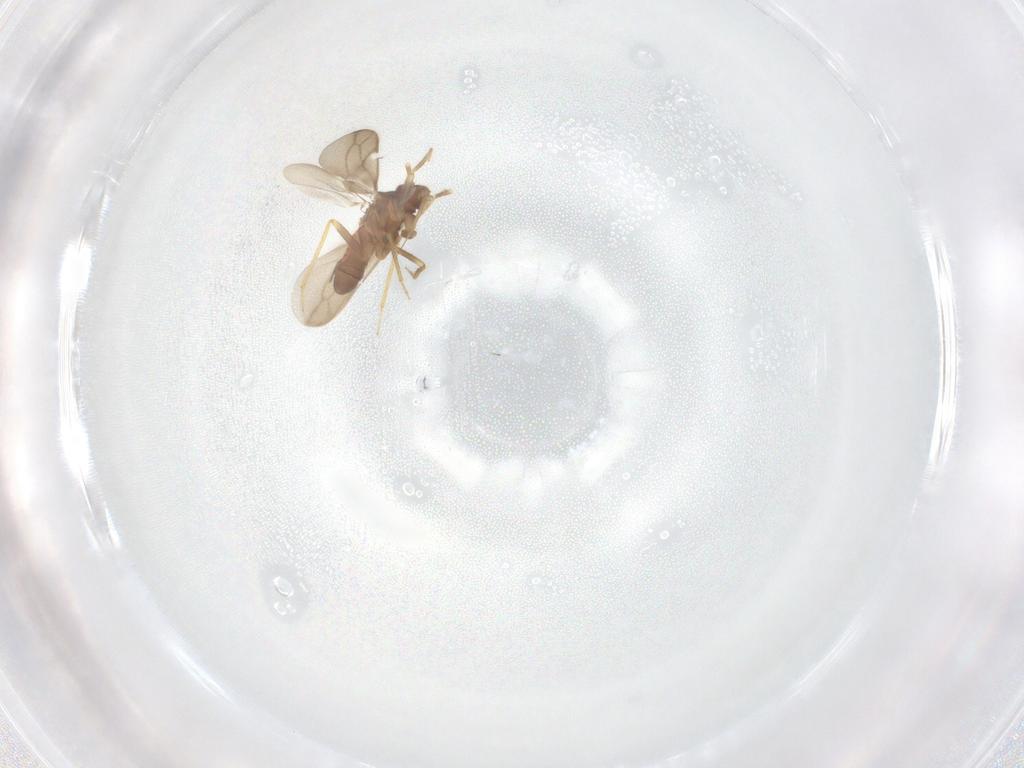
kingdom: Animalia
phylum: Arthropoda
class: Insecta
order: Hemiptera
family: Ceratocombidae
